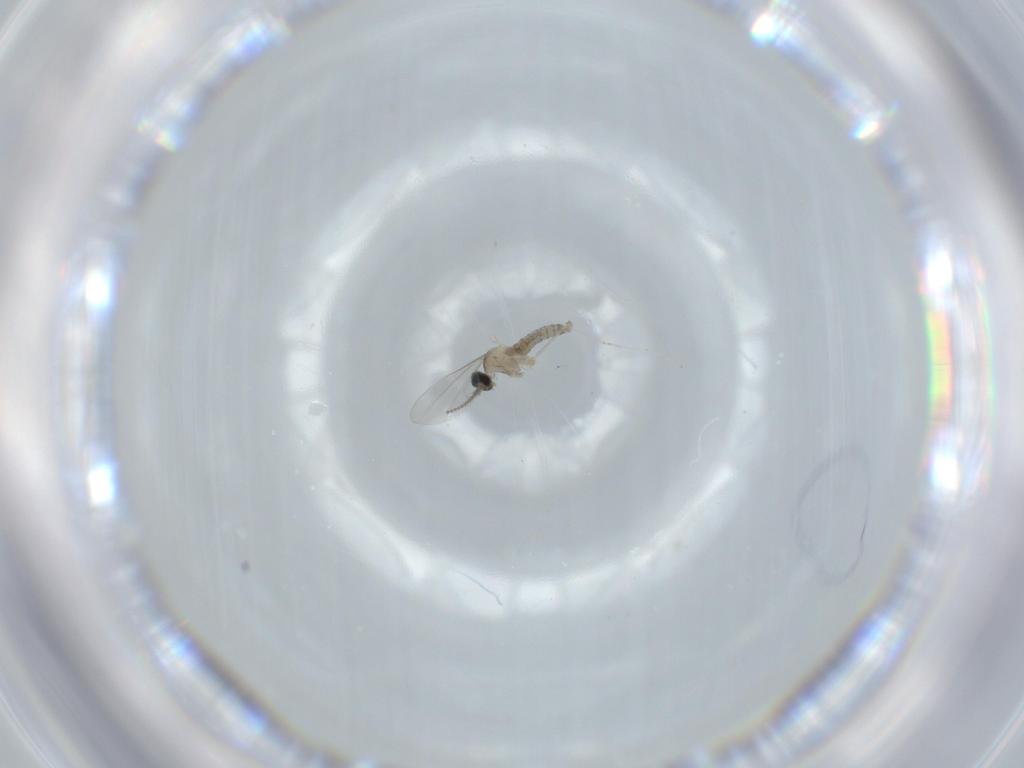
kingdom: Animalia
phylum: Arthropoda
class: Insecta
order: Diptera
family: Cecidomyiidae
